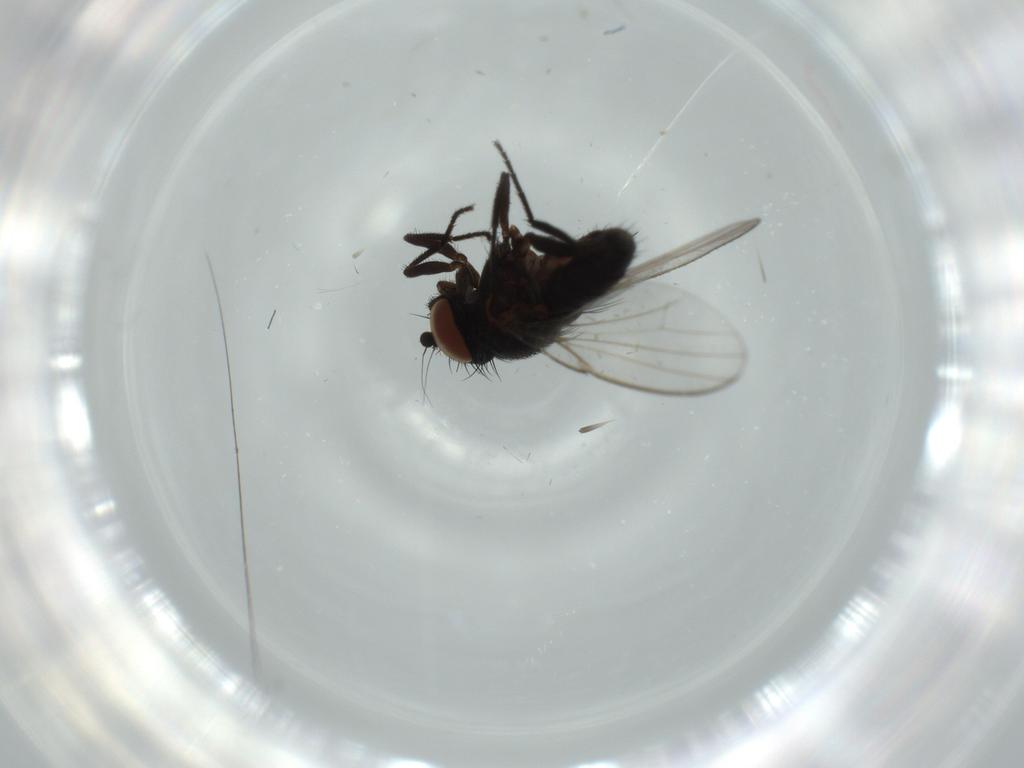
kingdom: Animalia
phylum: Arthropoda
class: Insecta
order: Diptera
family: Milichiidae
